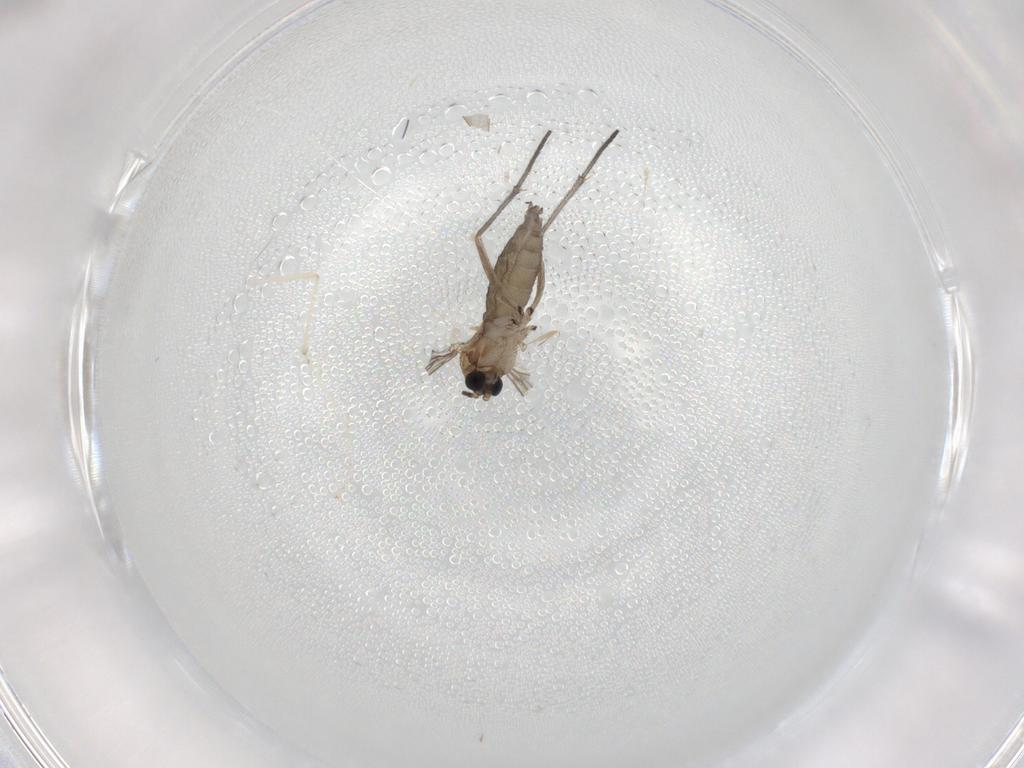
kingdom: Animalia
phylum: Arthropoda
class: Insecta
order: Diptera
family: Sciaridae
